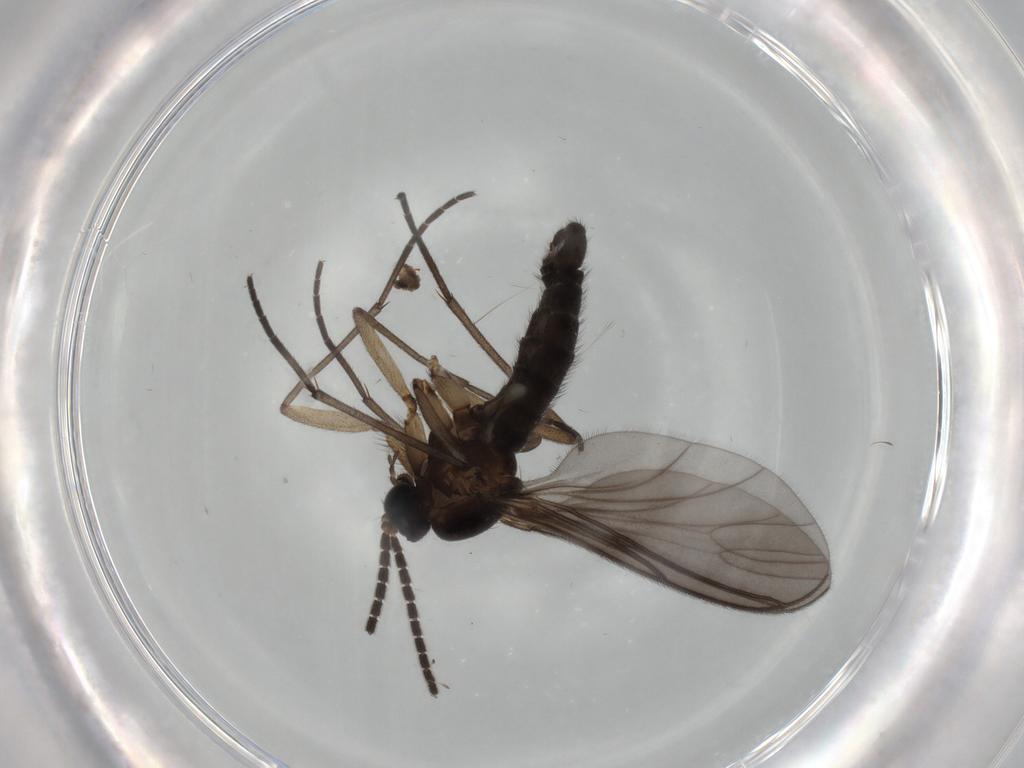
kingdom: Animalia
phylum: Arthropoda
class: Insecta
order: Diptera
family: Sciaridae
